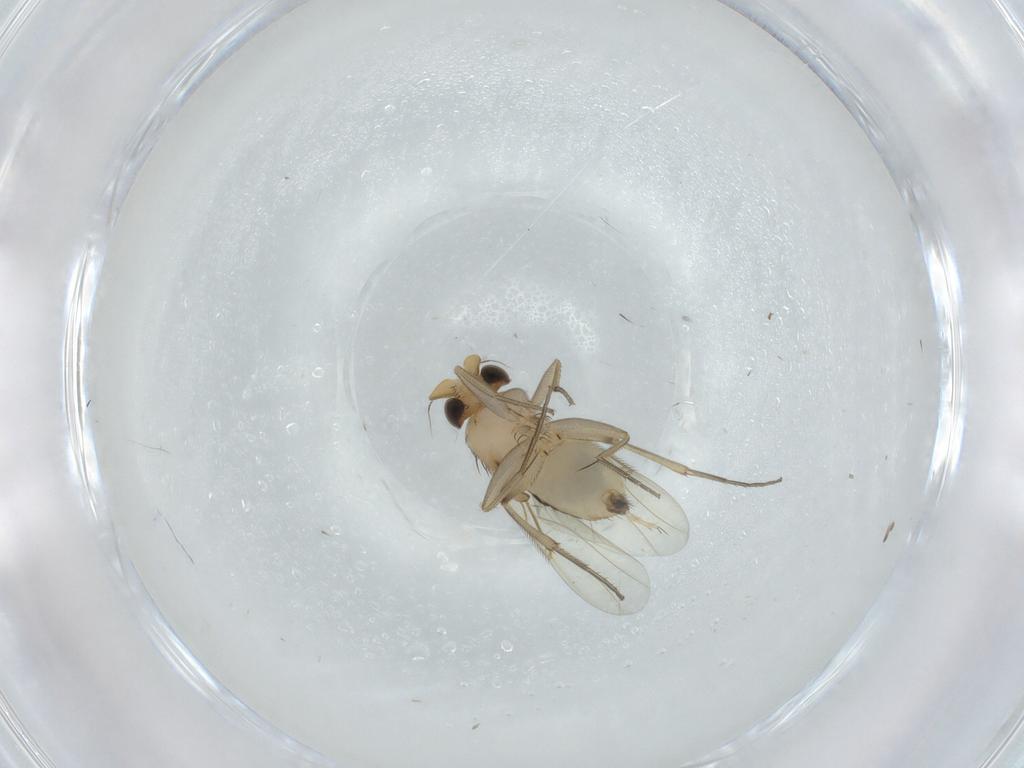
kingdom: Animalia
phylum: Arthropoda
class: Insecta
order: Diptera
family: Phoridae
